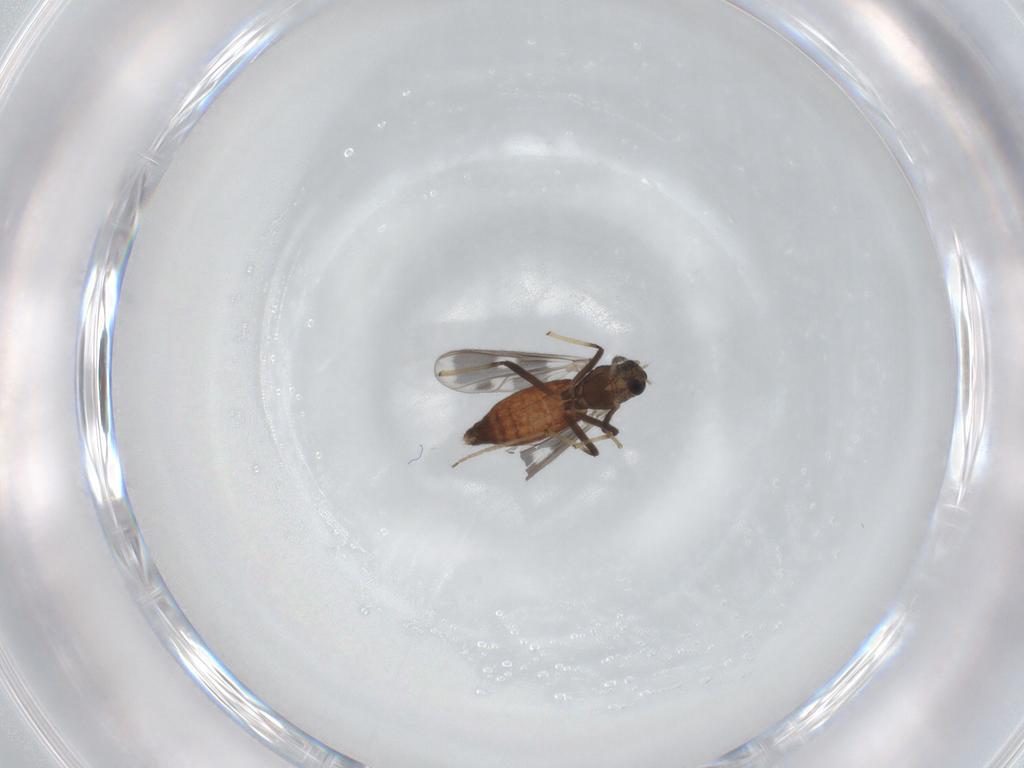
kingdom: Animalia
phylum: Arthropoda
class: Insecta
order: Diptera
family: Chironomidae
